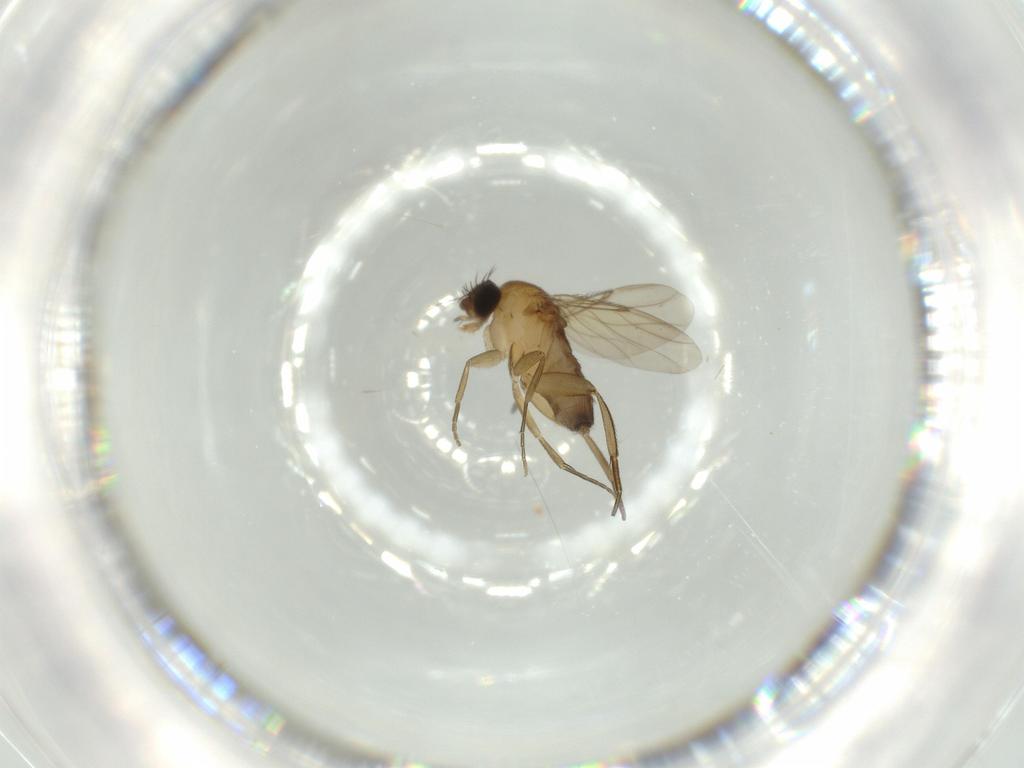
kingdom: Animalia
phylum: Arthropoda
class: Insecta
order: Diptera
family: Phoridae
